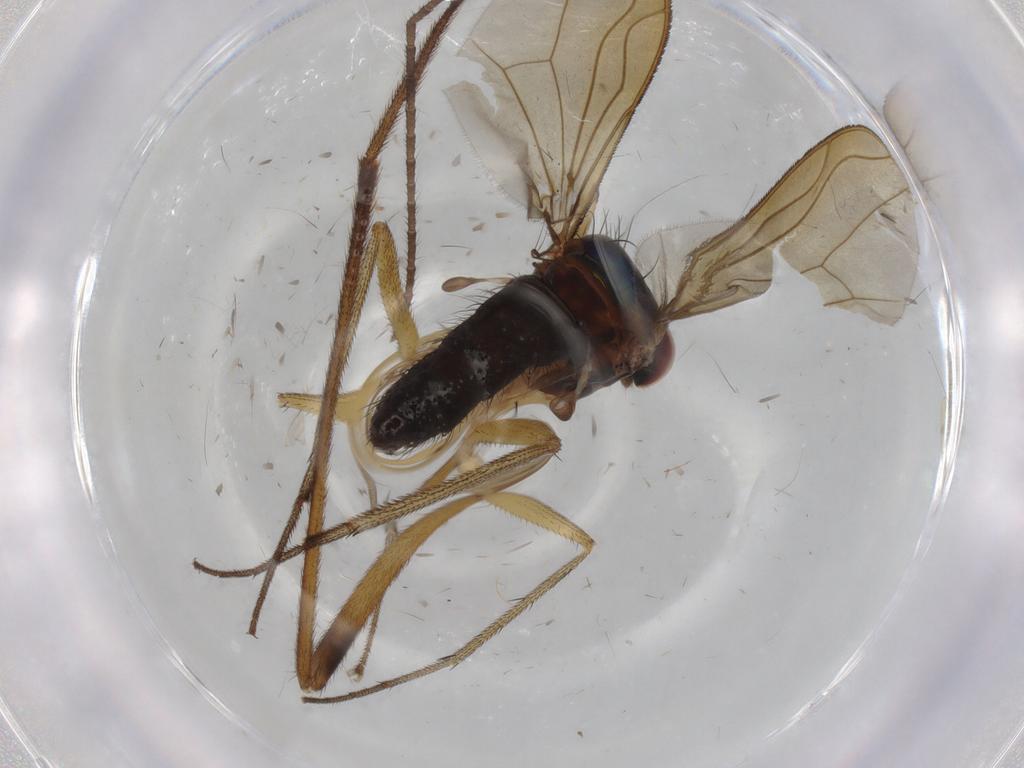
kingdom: Animalia
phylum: Arthropoda
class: Insecta
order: Diptera
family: Dolichopodidae
